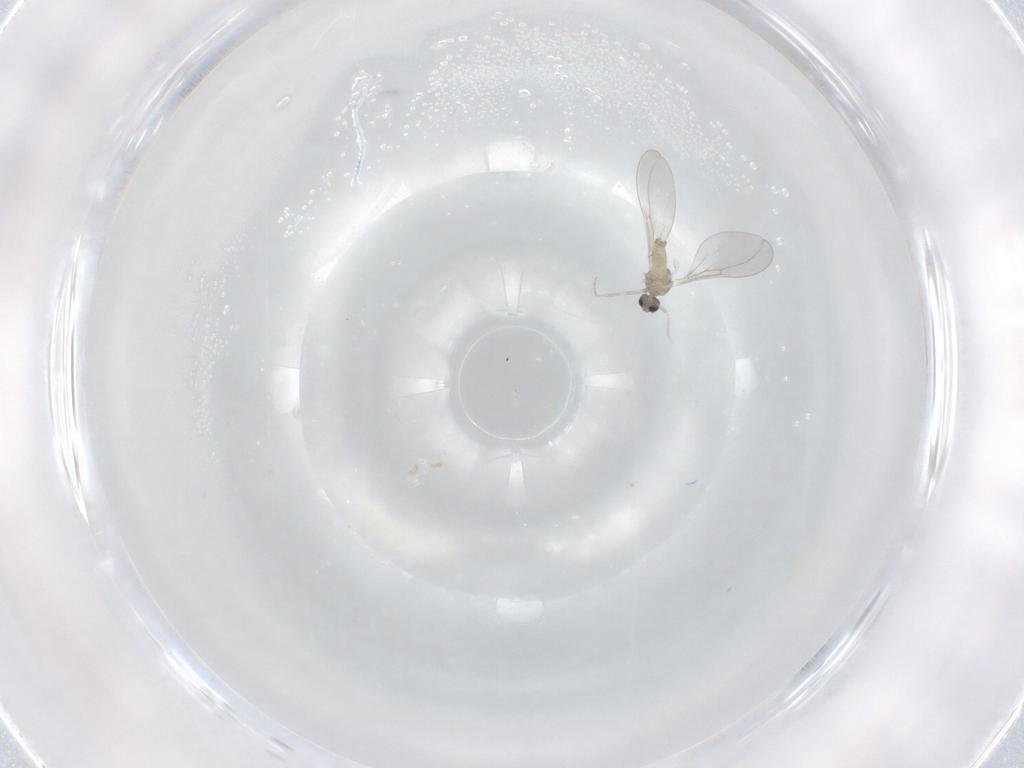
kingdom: Animalia
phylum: Arthropoda
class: Insecta
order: Diptera
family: Cecidomyiidae
